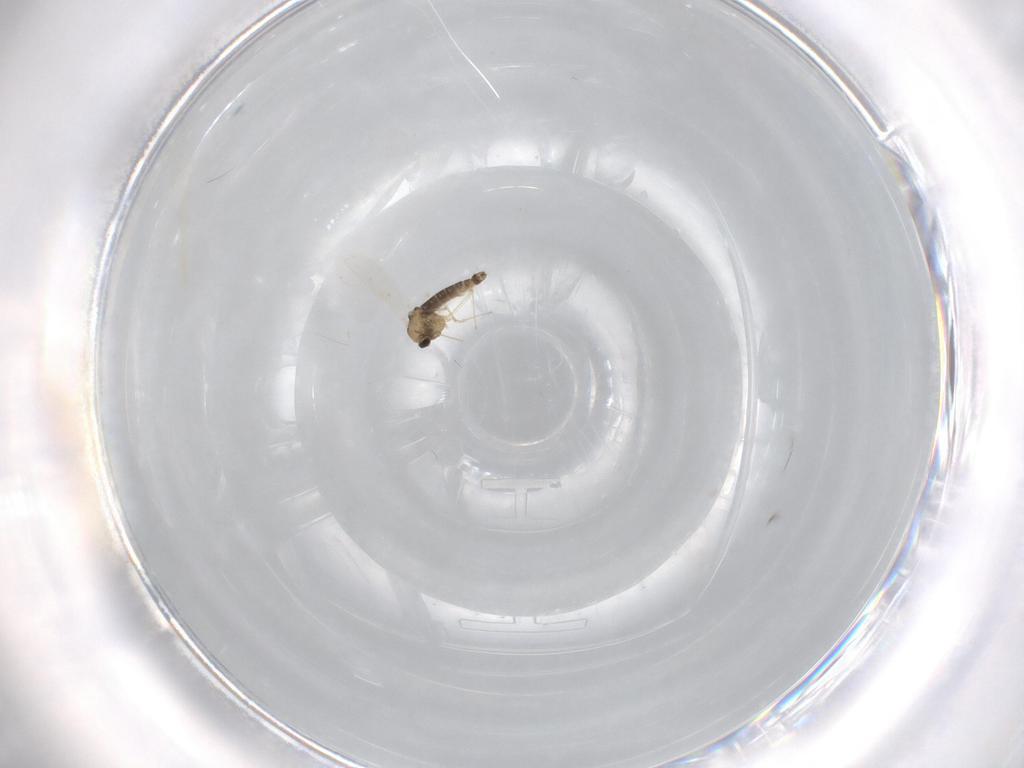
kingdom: Animalia
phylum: Arthropoda
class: Insecta
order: Diptera
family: Chironomidae
